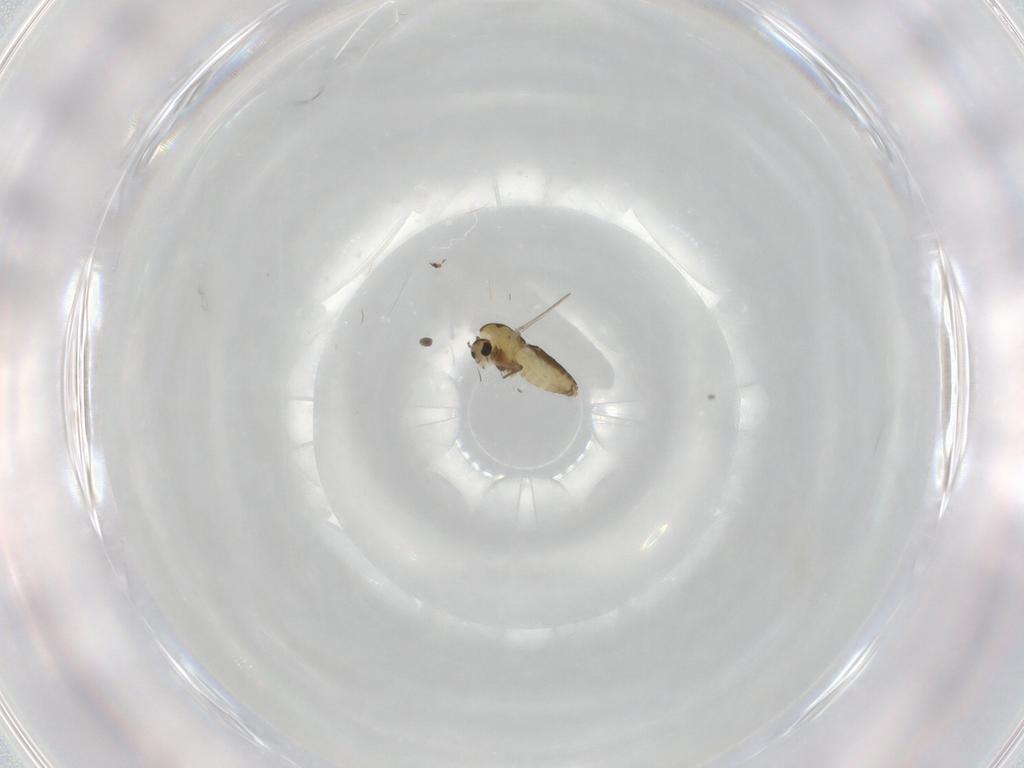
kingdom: Animalia
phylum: Arthropoda
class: Insecta
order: Diptera
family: Chironomidae
